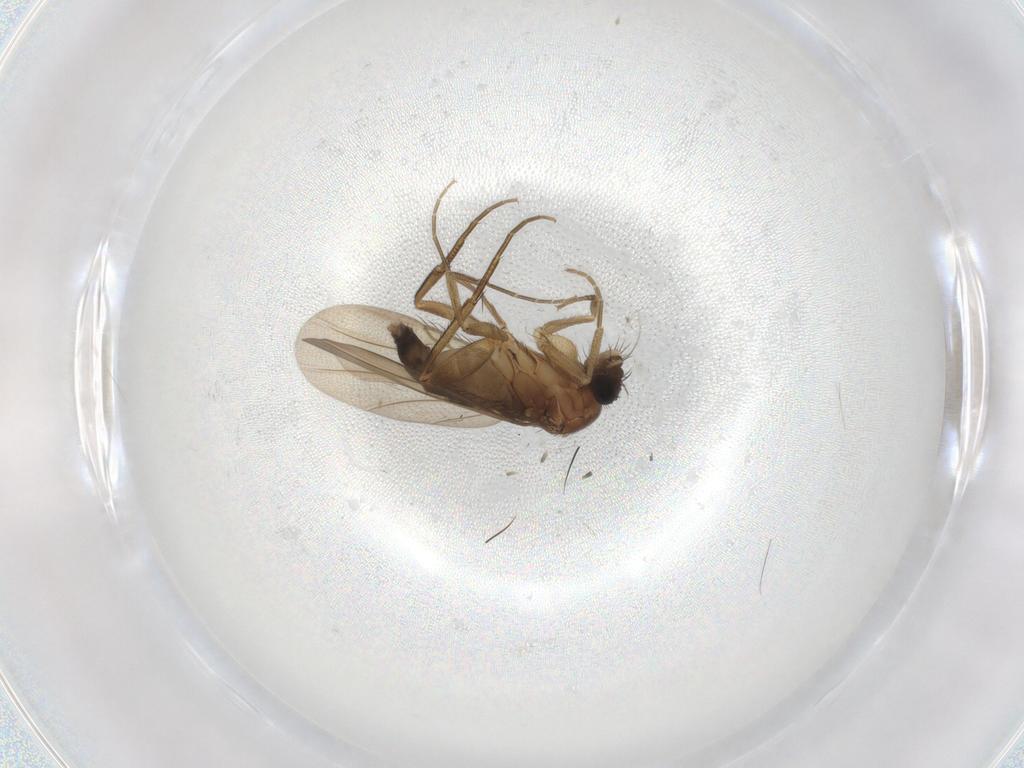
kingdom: Animalia
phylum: Arthropoda
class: Insecta
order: Diptera
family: Phoridae
